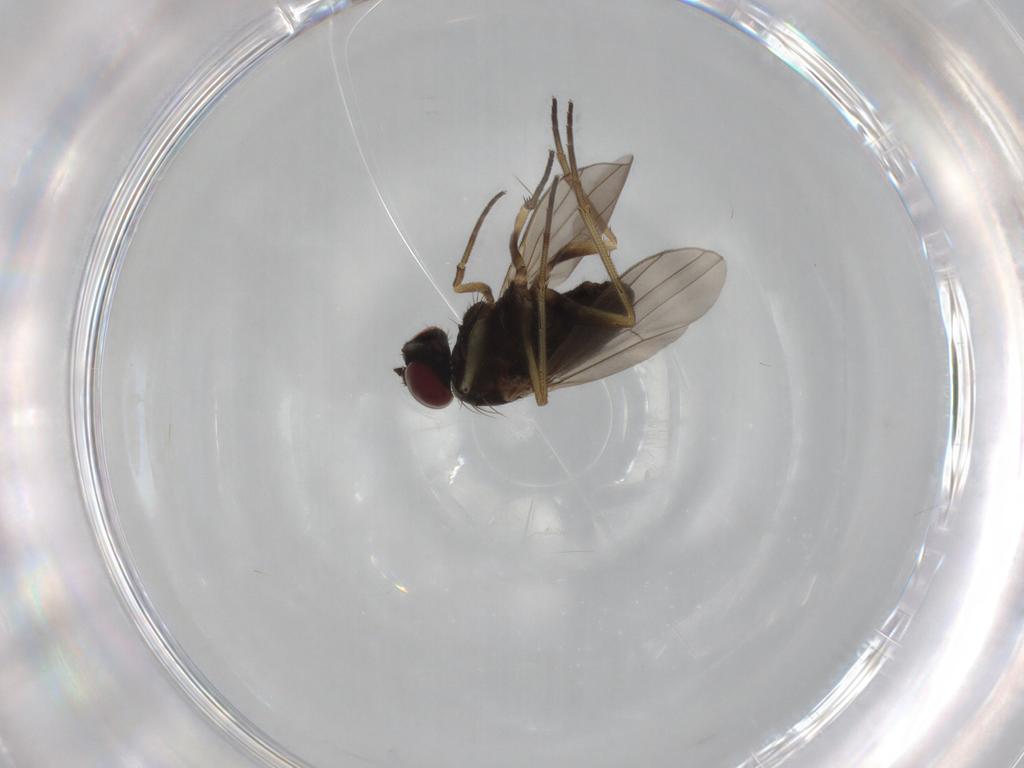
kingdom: Animalia
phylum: Arthropoda
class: Insecta
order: Diptera
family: Dolichopodidae
